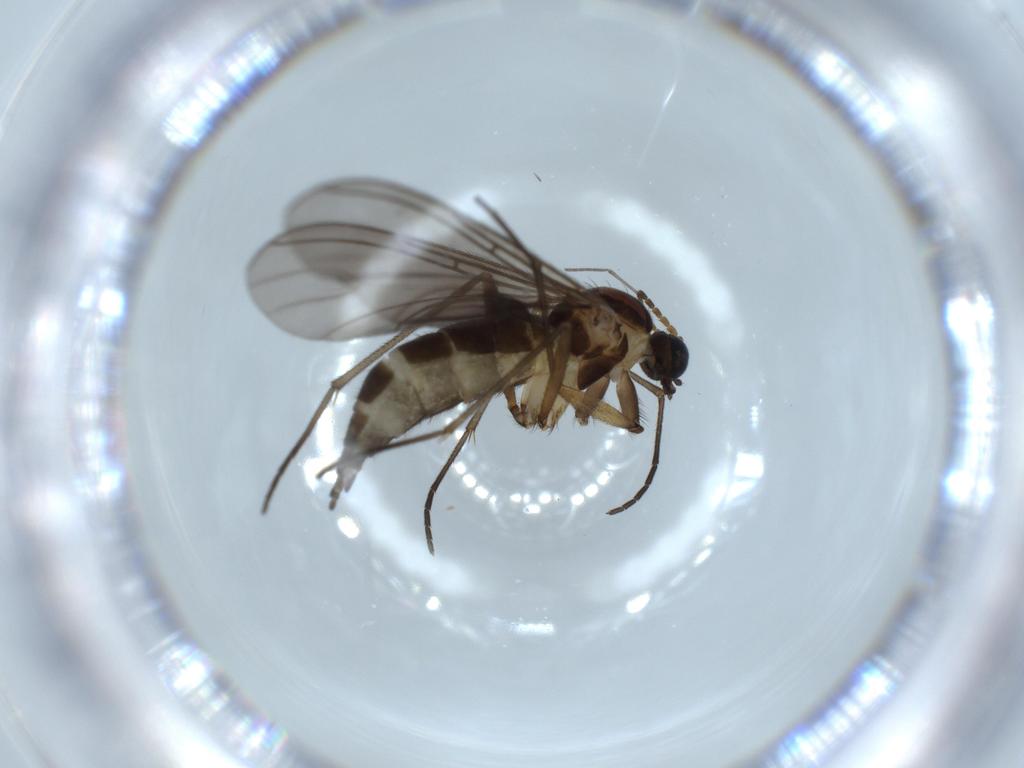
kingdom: Animalia
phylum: Arthropoda
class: Insecta
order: Diptera
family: Sciaridae
